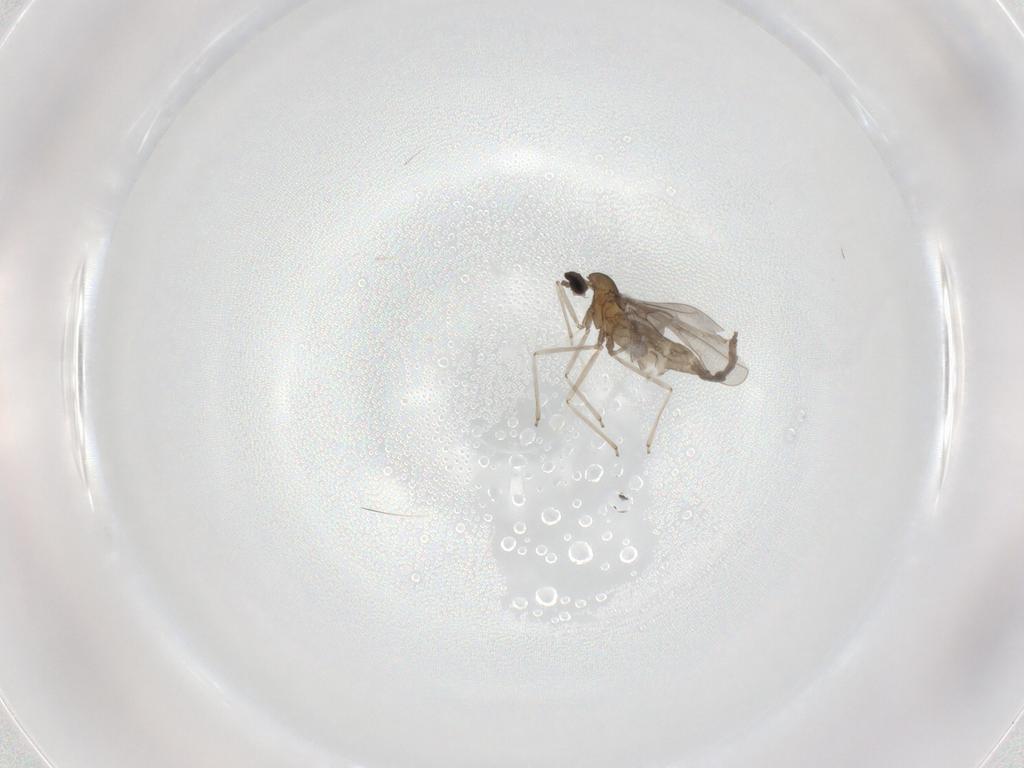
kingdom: Animalia
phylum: Arthropoda
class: Insecta
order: Diptera
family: Cecidomyiidae
